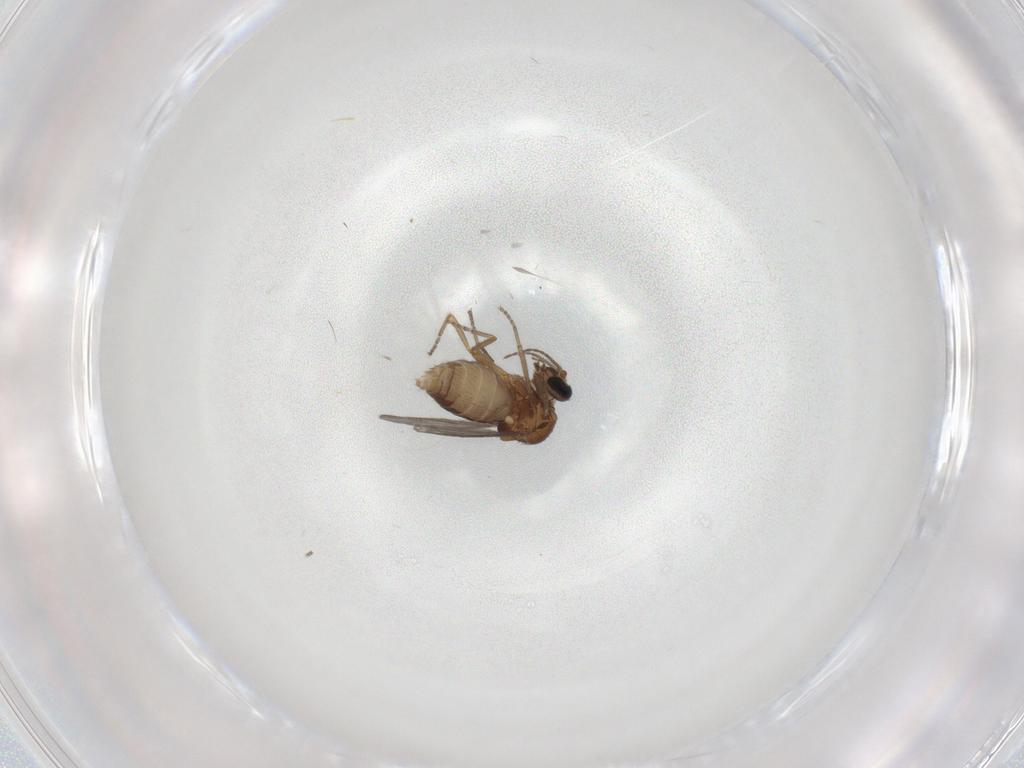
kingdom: Animalia
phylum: Arthropoda
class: Insecta
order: Diptera
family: Ceratopogonidae
